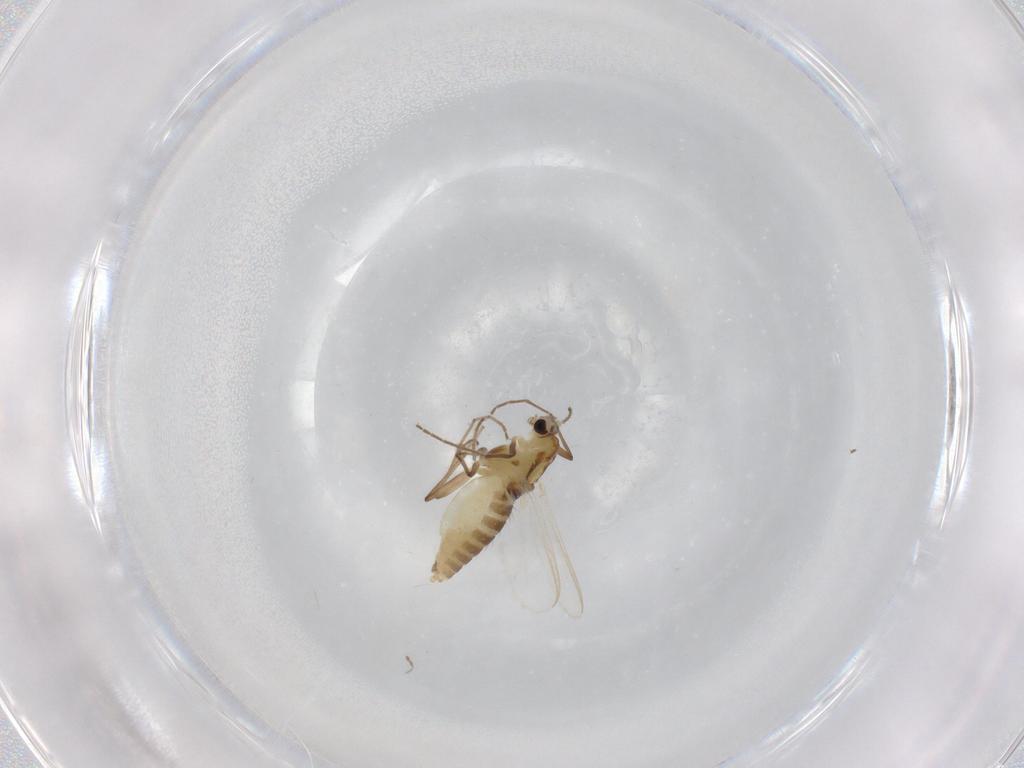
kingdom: Animalia
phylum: Arthropoda
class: Insecta
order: Diptera
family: Chironomidae
